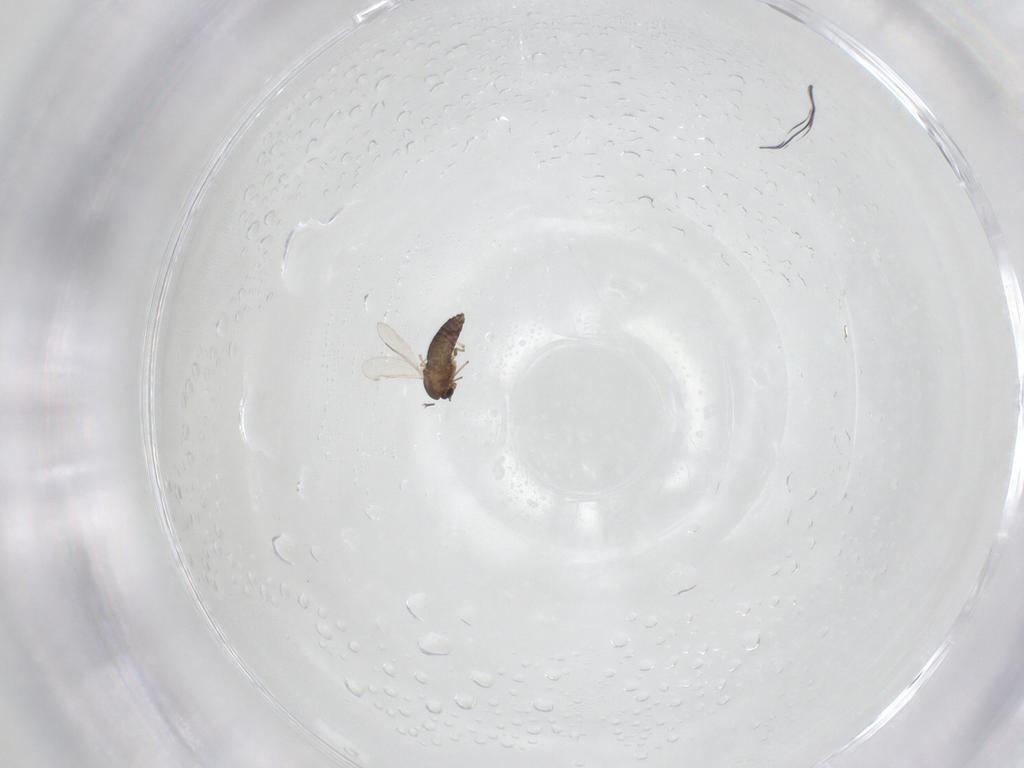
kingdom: Animalia
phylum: Arthropoda
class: Insecta
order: Diptera
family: Chironomidae
